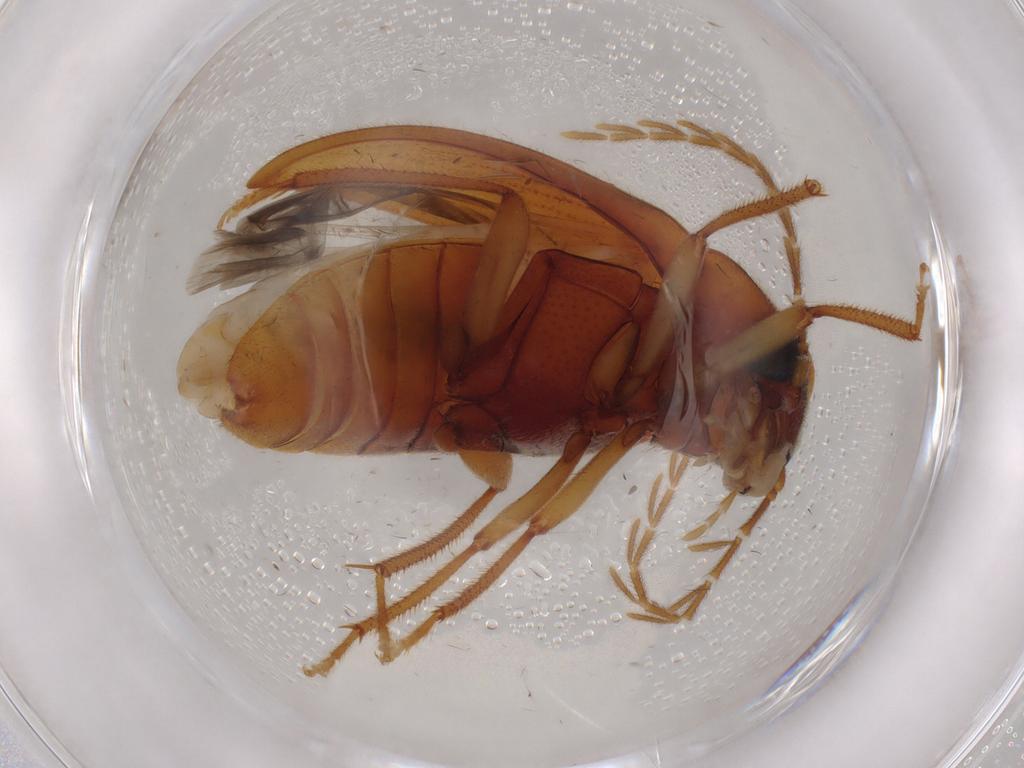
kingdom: Animalia
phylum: Arthropoda
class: Insecta
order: Coleoptera
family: Ptilodactylidae
